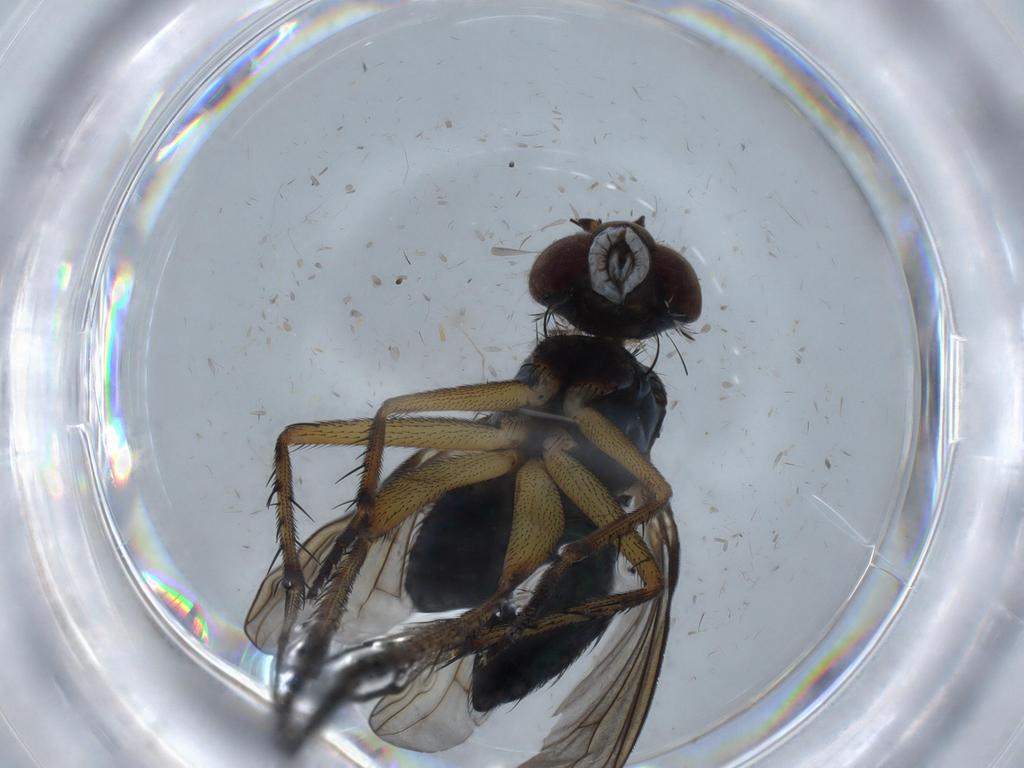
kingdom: Animalia
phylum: Arthropoda
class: Insecta
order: Diptera
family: Dolichopodidae
